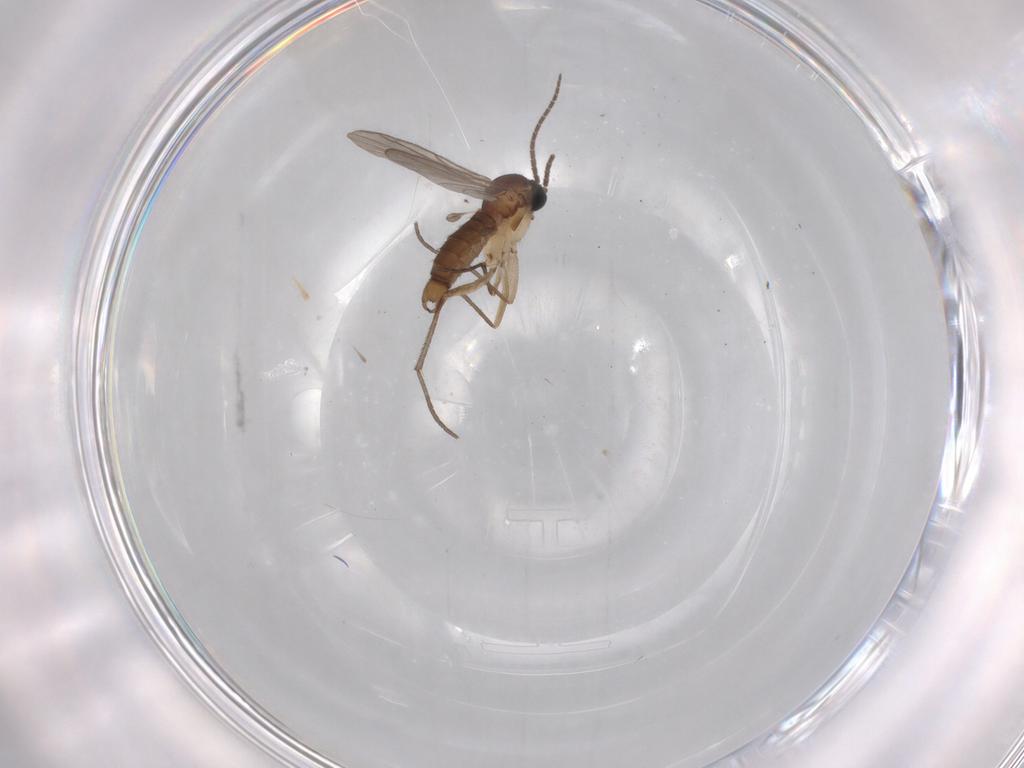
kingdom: Animalia
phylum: Arthropoda
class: Insecta
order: Diptera
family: Sciaridae
